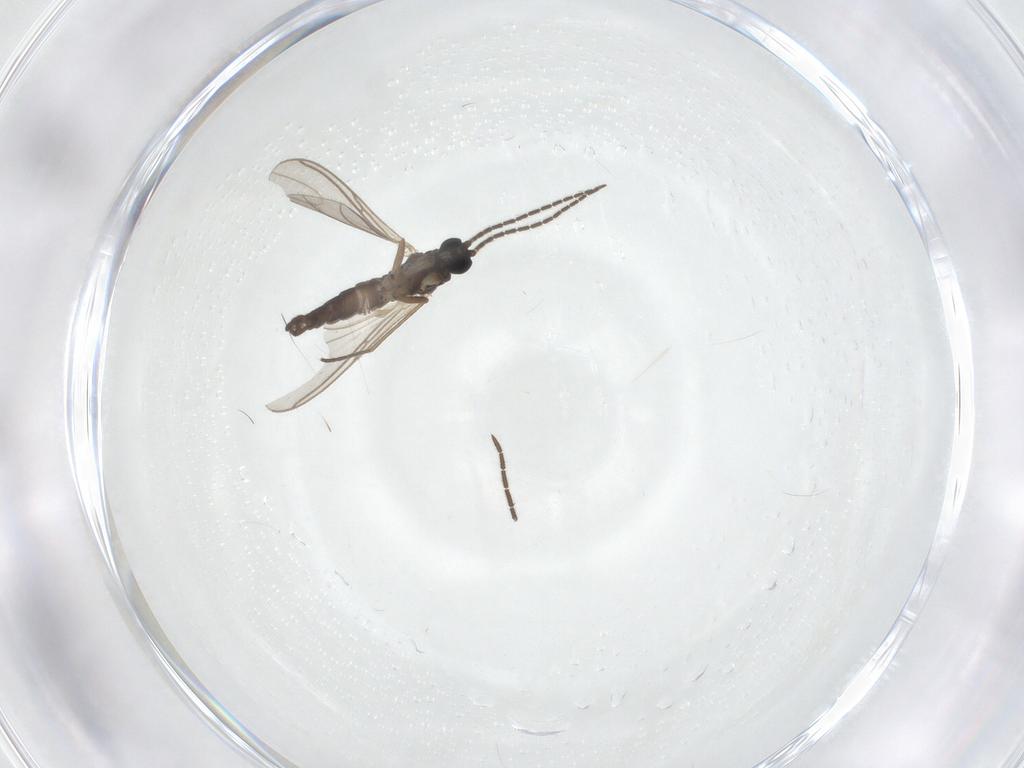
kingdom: Animalia
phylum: Arthropoda
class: Insecta
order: Diptera
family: Sciaridae
